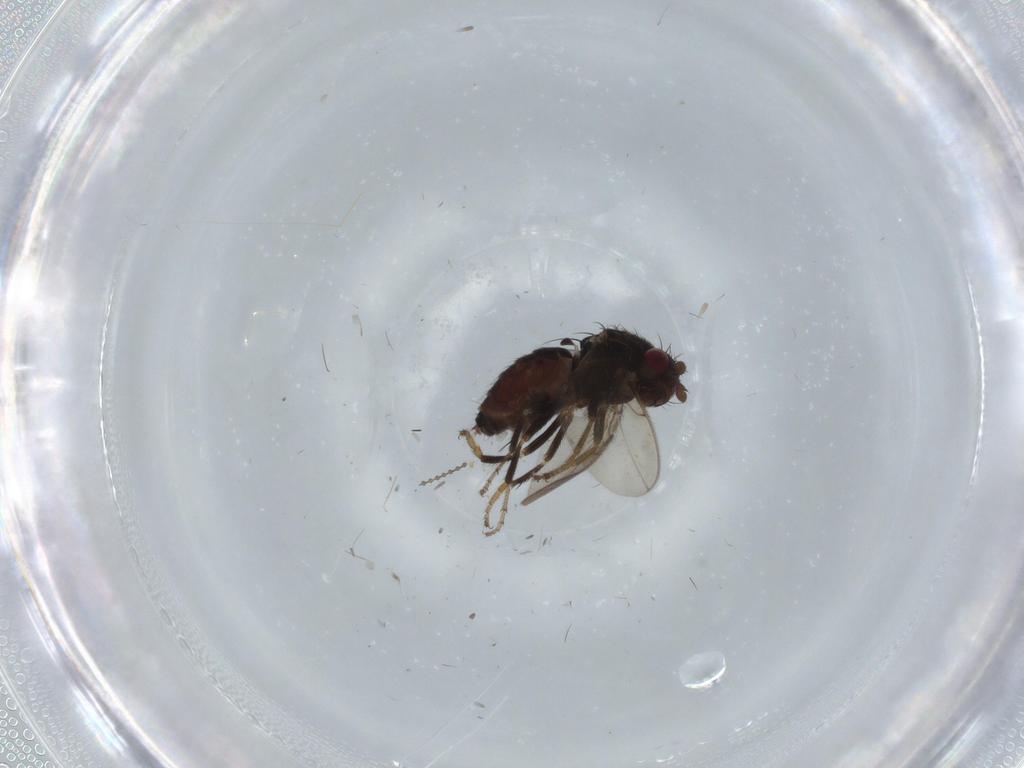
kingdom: Animalia
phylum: Arthropoda
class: Insecta
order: Diptera
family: Sphaeroceridae
